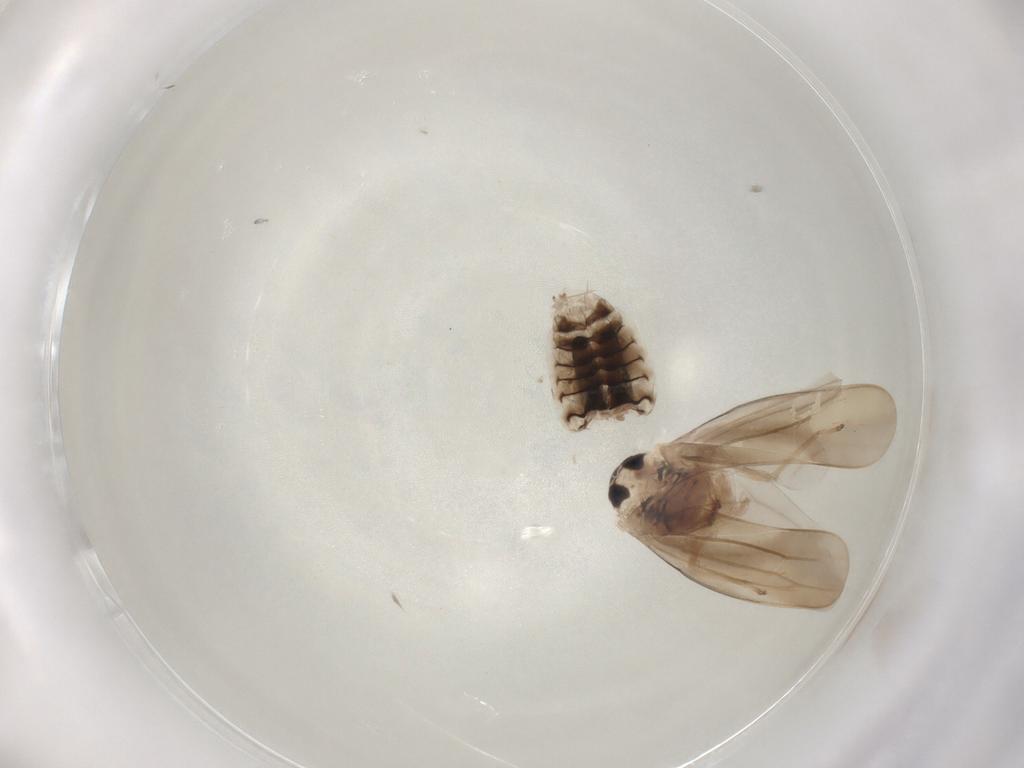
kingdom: Animalia
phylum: Arthropoda
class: Insecta
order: Hemiptera
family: Cicadellidae
